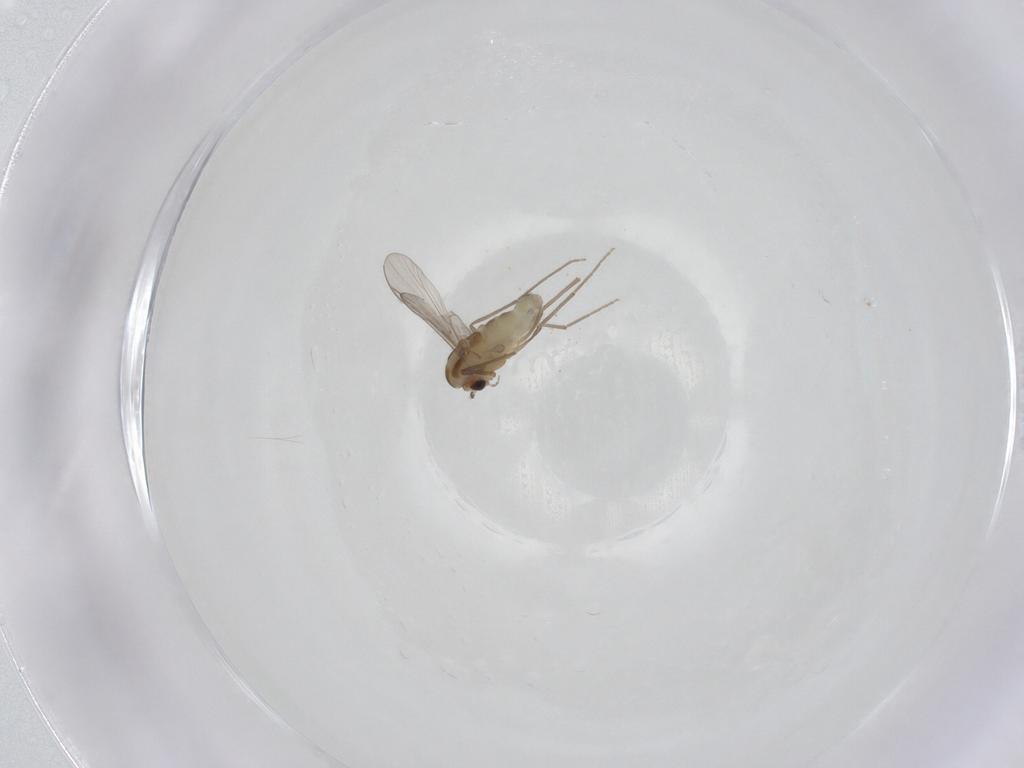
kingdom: Animalia
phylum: Arthropoda
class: Insecta
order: Diptera
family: Chironomidae
